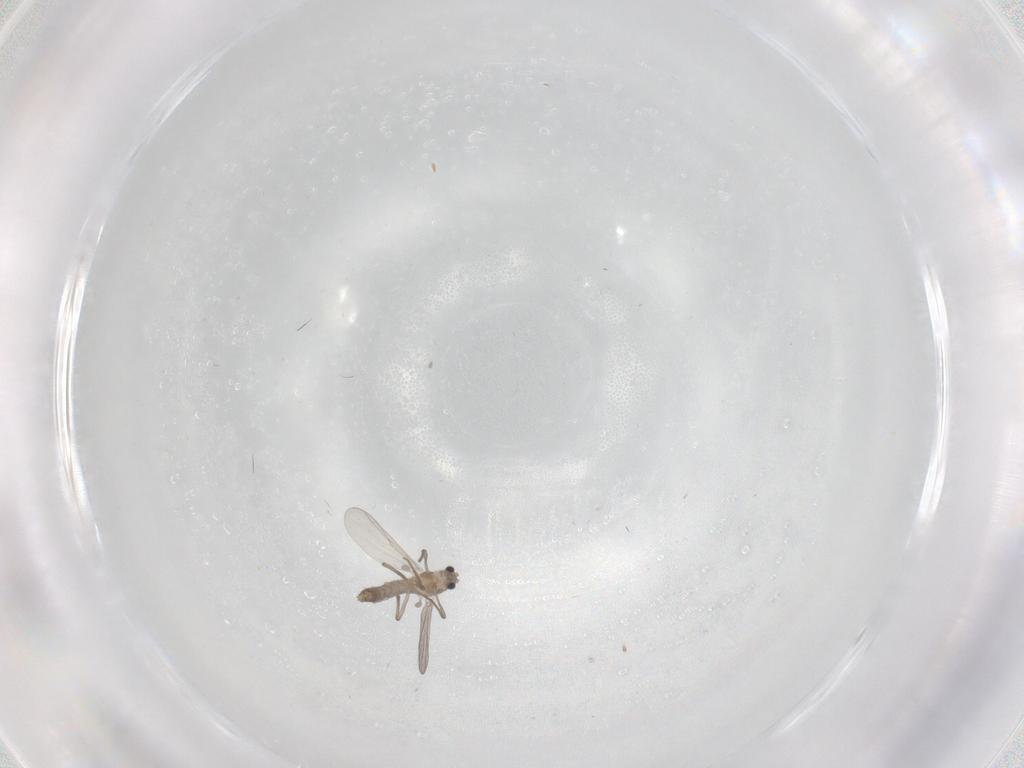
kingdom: Animalia
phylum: Arthropoda
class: Insecta
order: Diptera
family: Chironomidae
